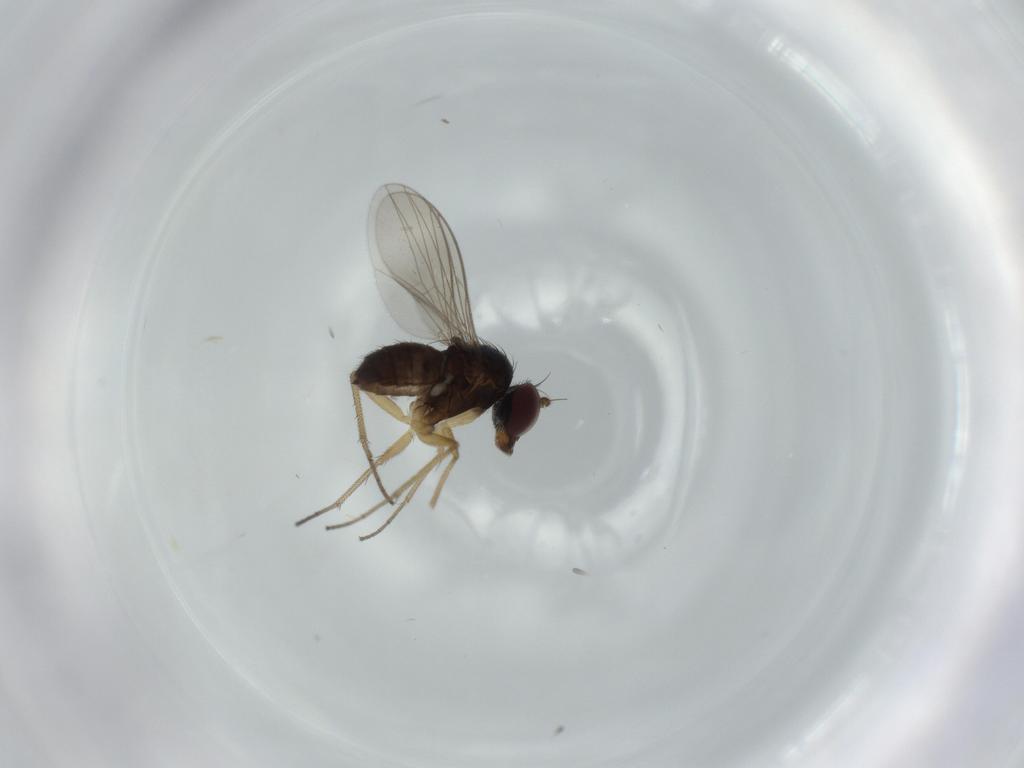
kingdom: Animalia
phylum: Arthropoda
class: Insecta
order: Diptera
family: Dolichopodidae
